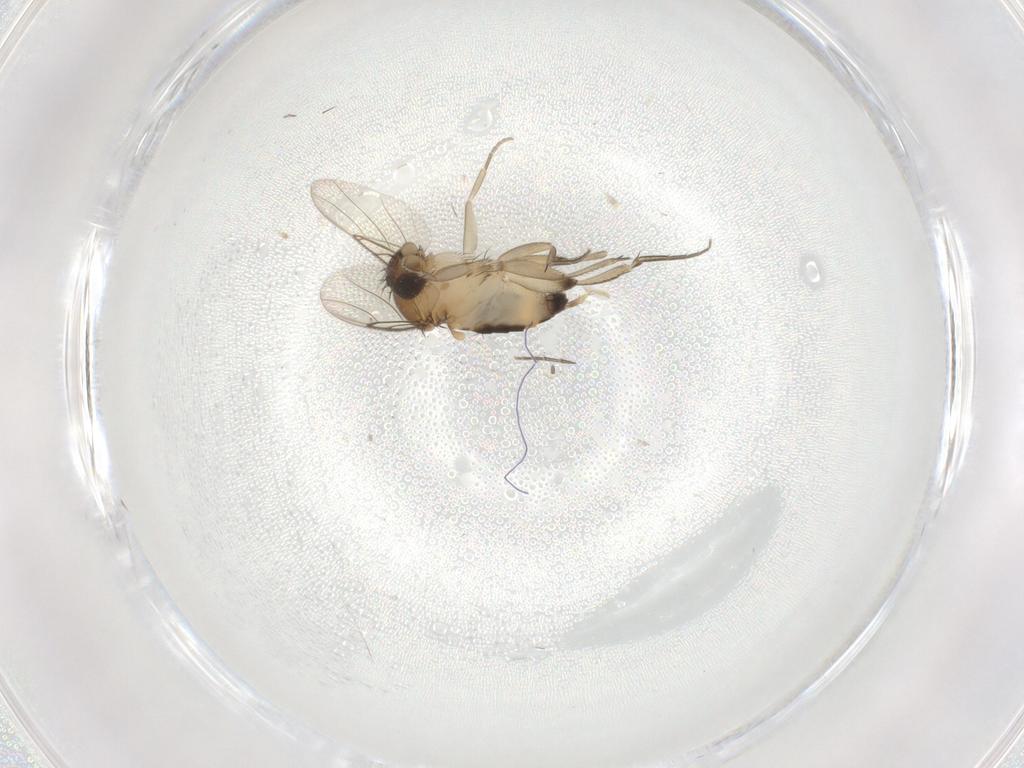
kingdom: Animalia
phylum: Arthropoda
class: Insecta
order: Diptera
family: Phoridae
